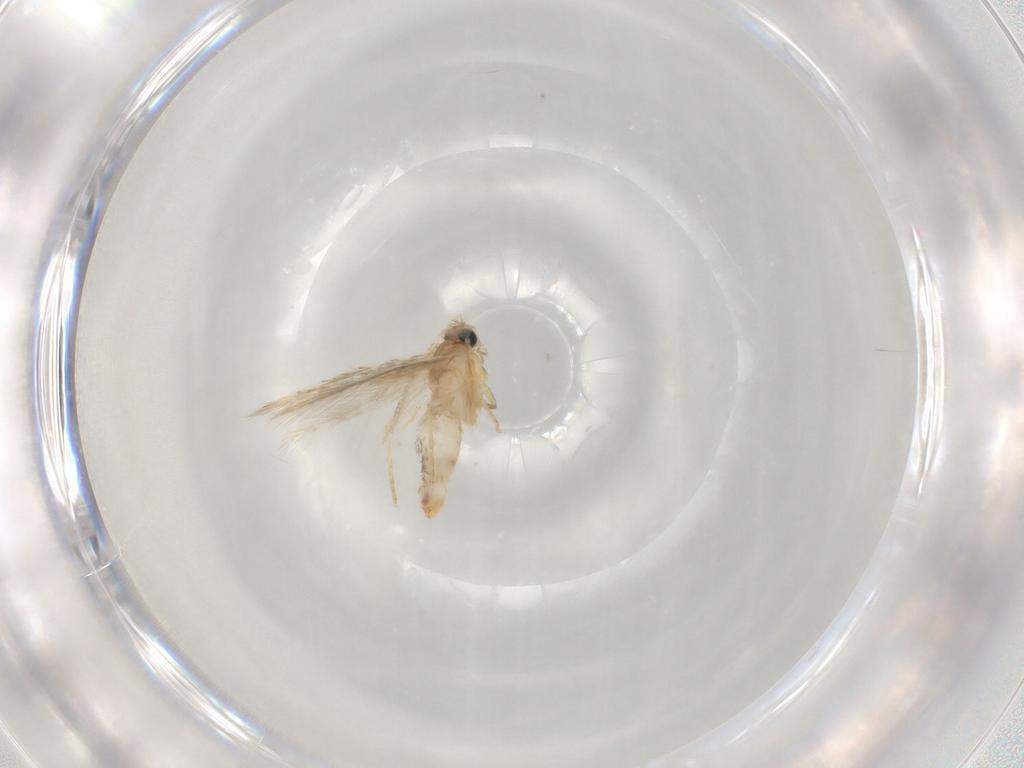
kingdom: Animalia
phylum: Arthropoda
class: Insecta
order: Lepidoptera
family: Nepticulidae
